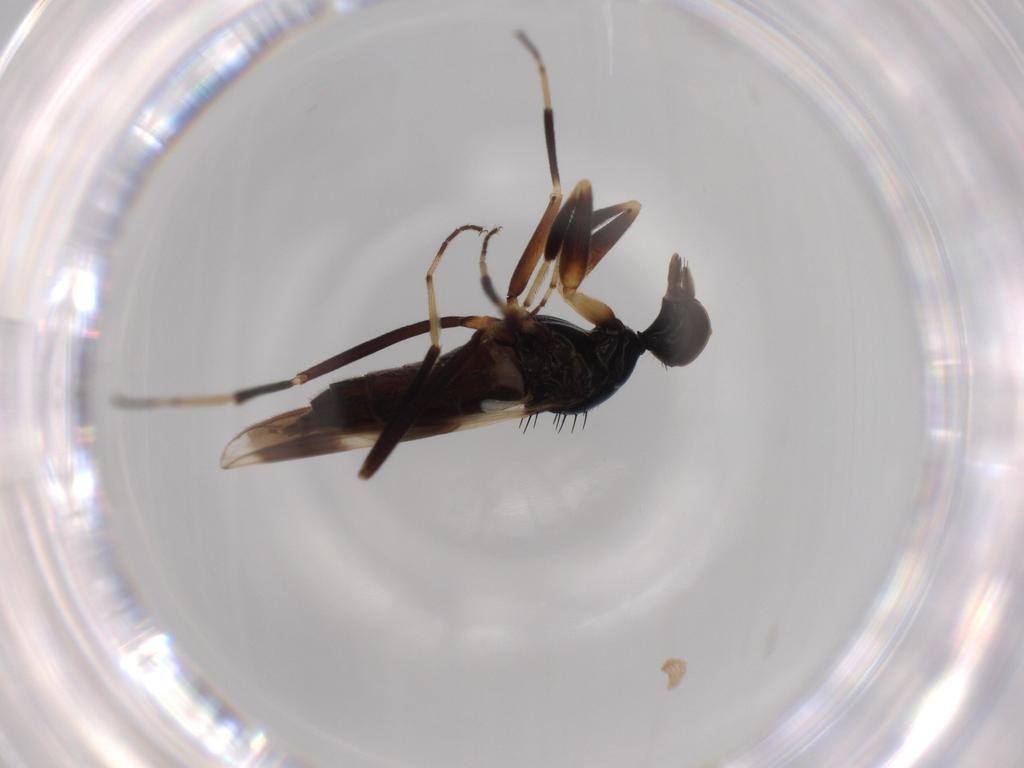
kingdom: Animalia
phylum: Arthropoda
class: Insecta
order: Diptera
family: Hybotidae
